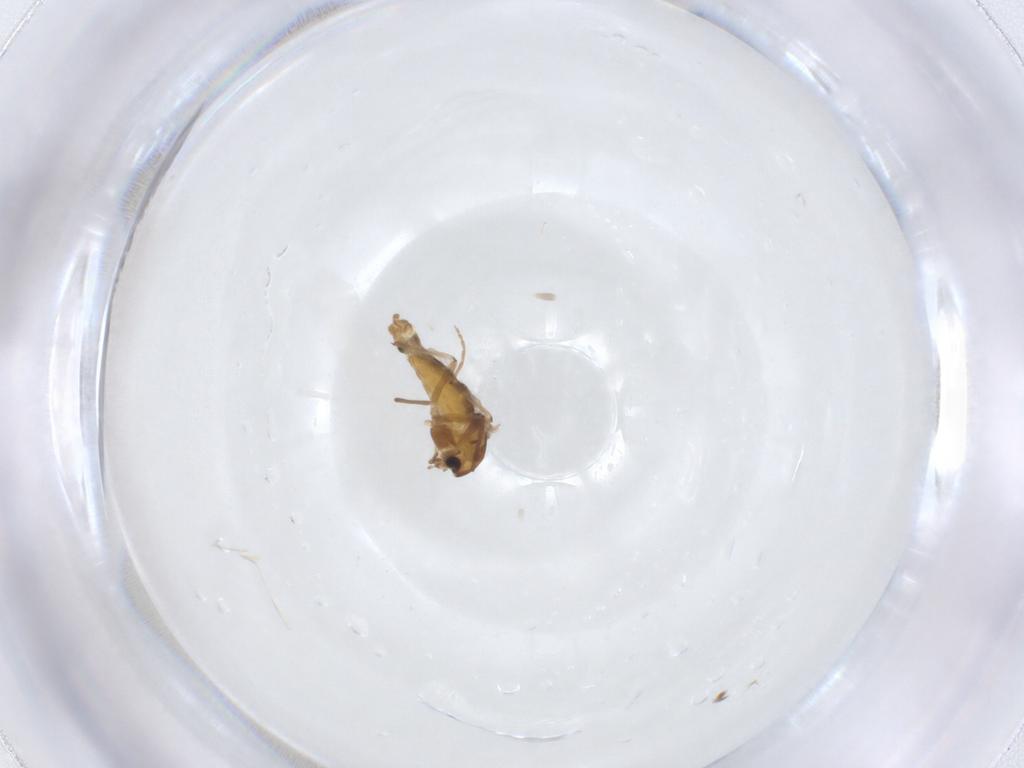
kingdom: Animalia
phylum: Arthropoda
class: Insecta
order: Diptera
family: Chironomidae
